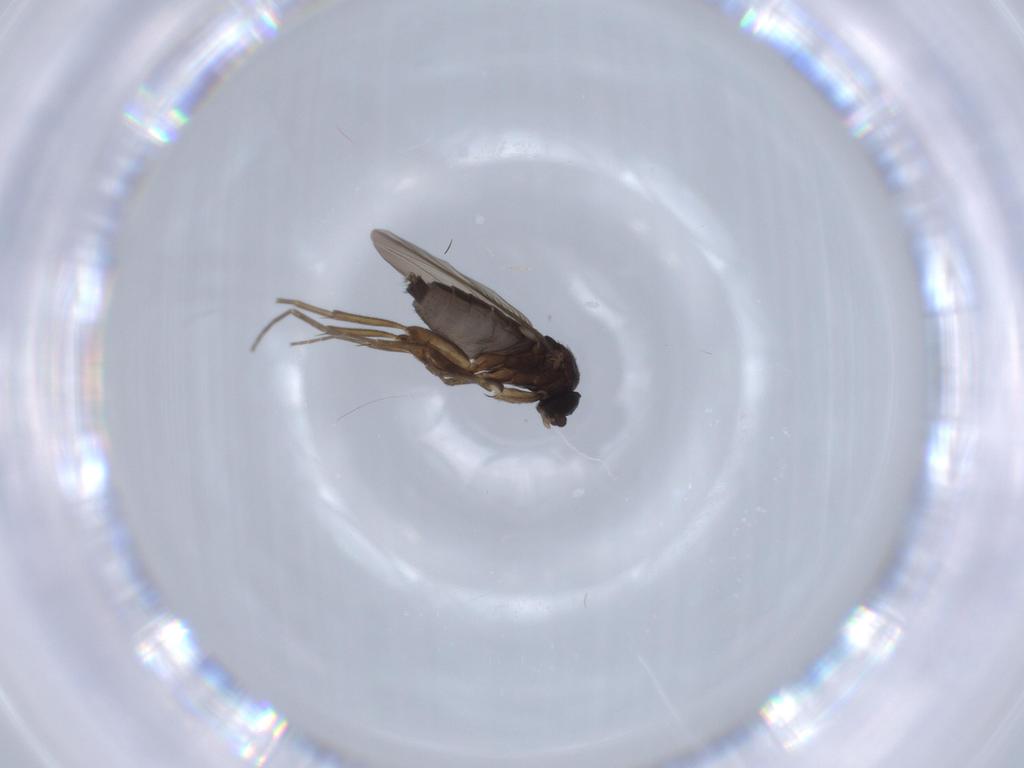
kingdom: Animalia
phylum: Arthropoda
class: Insecta
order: Diptera
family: Phoridae
